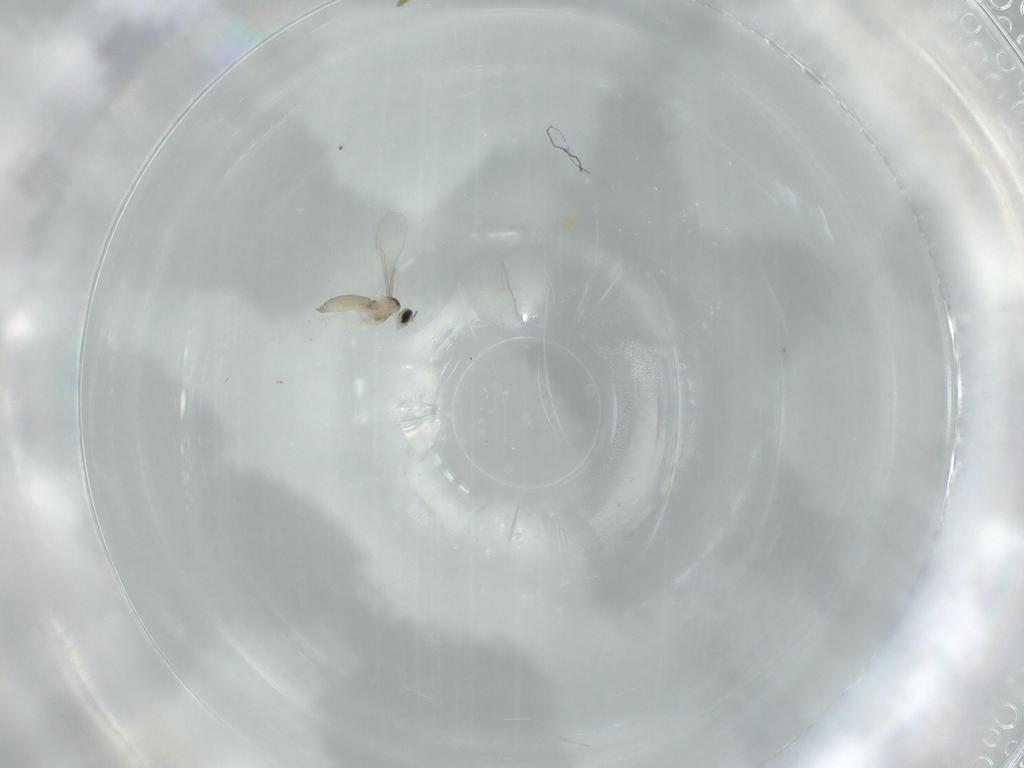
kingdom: Animalia
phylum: Arthropoda
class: Insecta
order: Diptera
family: Cecidomyiidae
